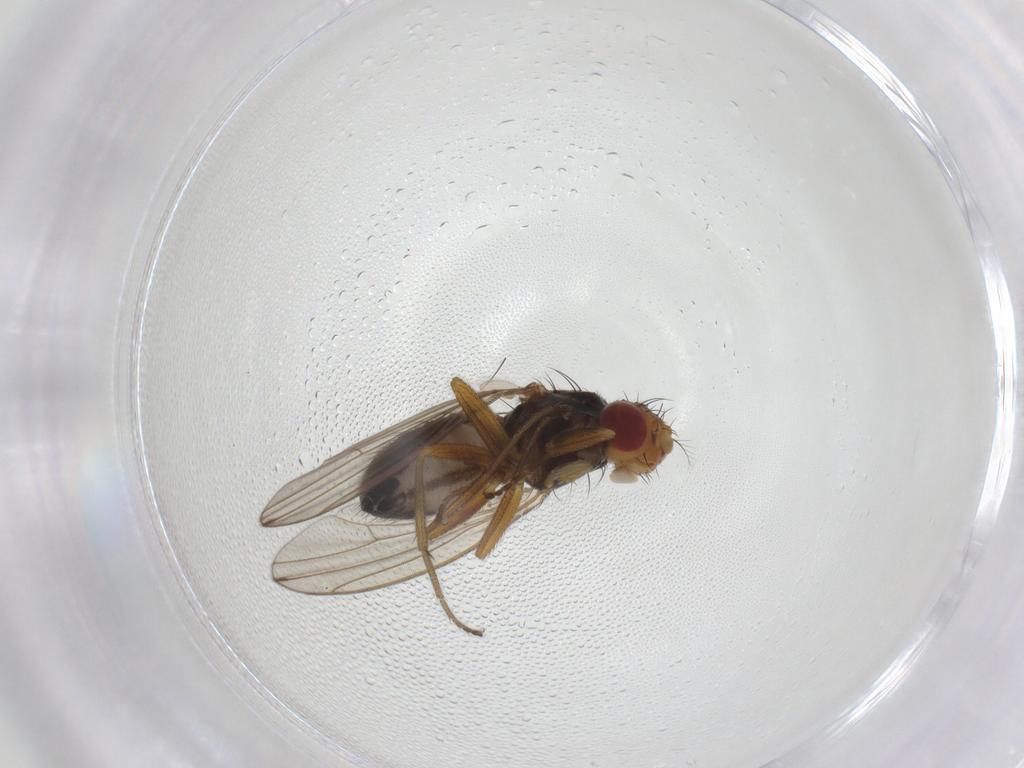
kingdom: Animalia
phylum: Arthropoda
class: Insecta
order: Diptera
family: Drosophilidae
